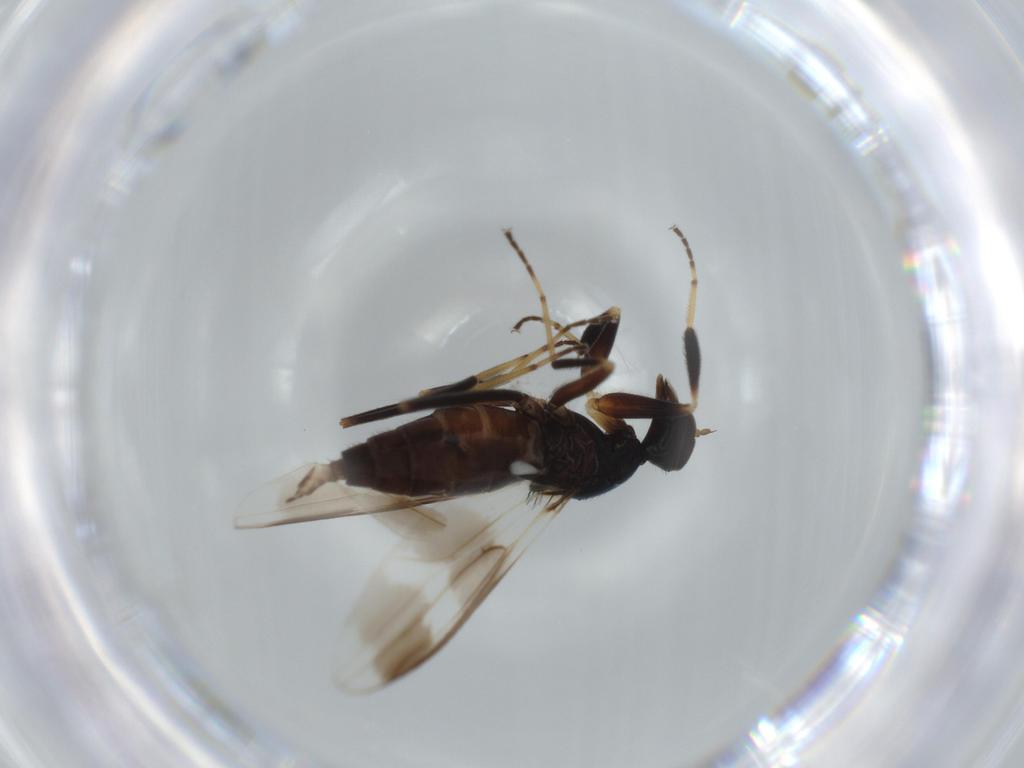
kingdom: Animalia
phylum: Arthropoda
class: Insecta
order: Diptera
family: Hybotidae
